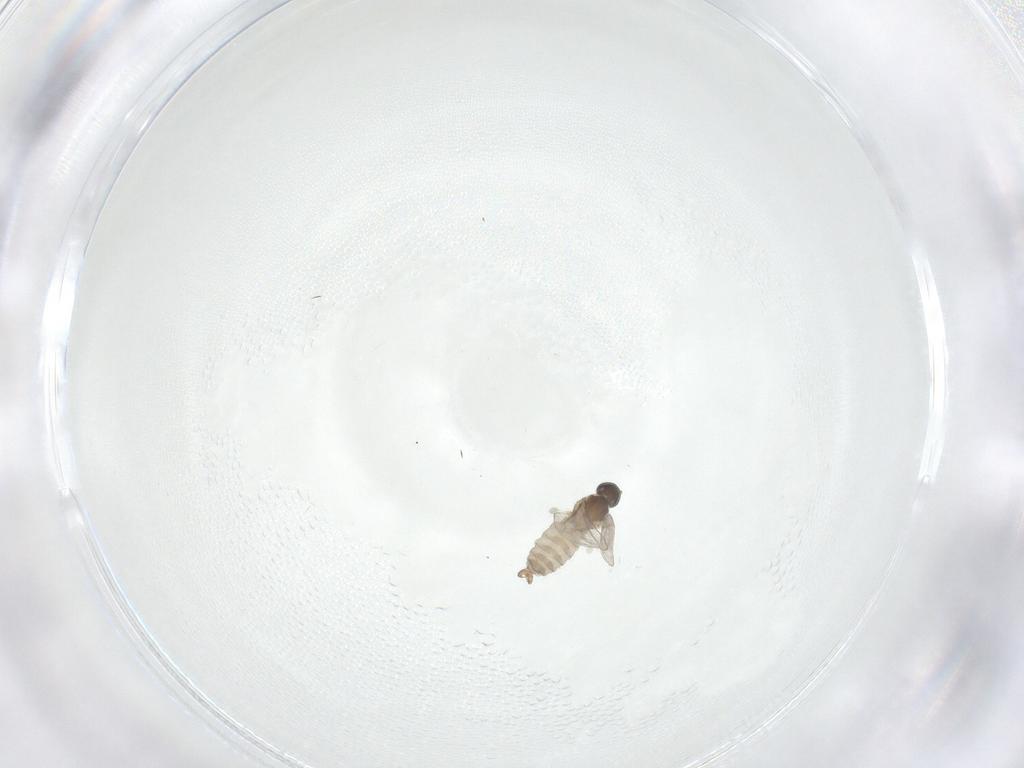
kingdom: Animalia
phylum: Arthropoda
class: Insecta
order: Diptera
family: Cecidomyiidae
